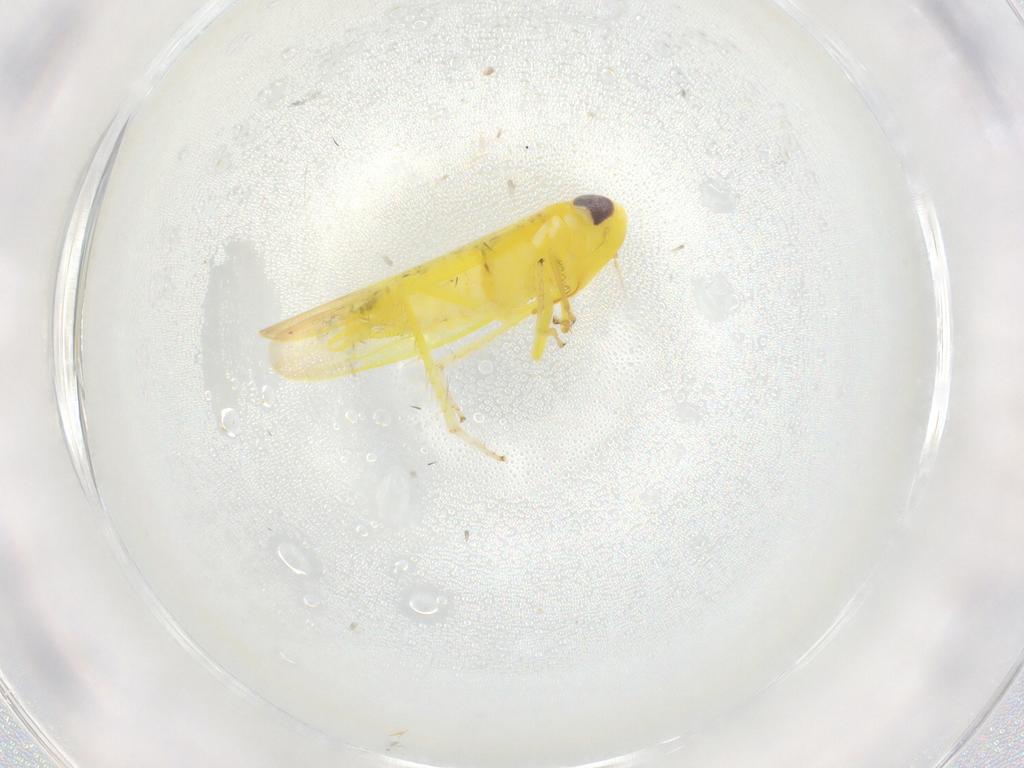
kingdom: Animalia
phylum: Arthropoda
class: Insecta
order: Hemiptera
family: Cicadellidae
